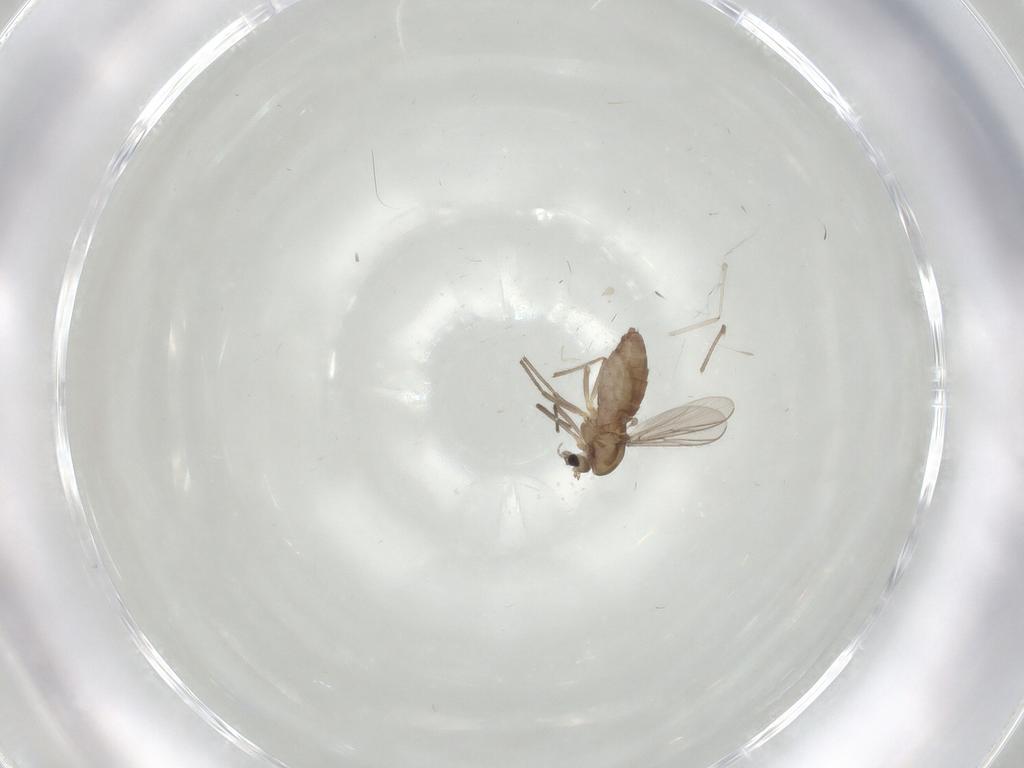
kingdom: Animalia
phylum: Arthropoda
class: Insecta
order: Diptera
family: Chironomidae
